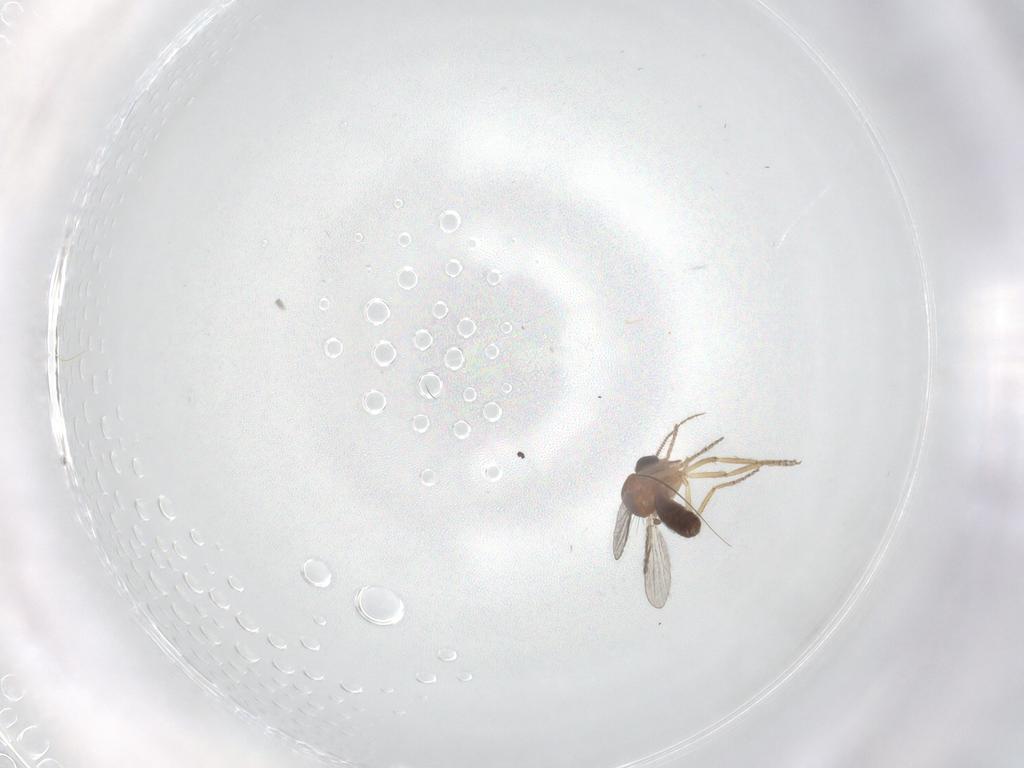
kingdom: Animalia
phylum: Arthropoda
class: Insecta
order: Diptera
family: Ceratopogonidae
